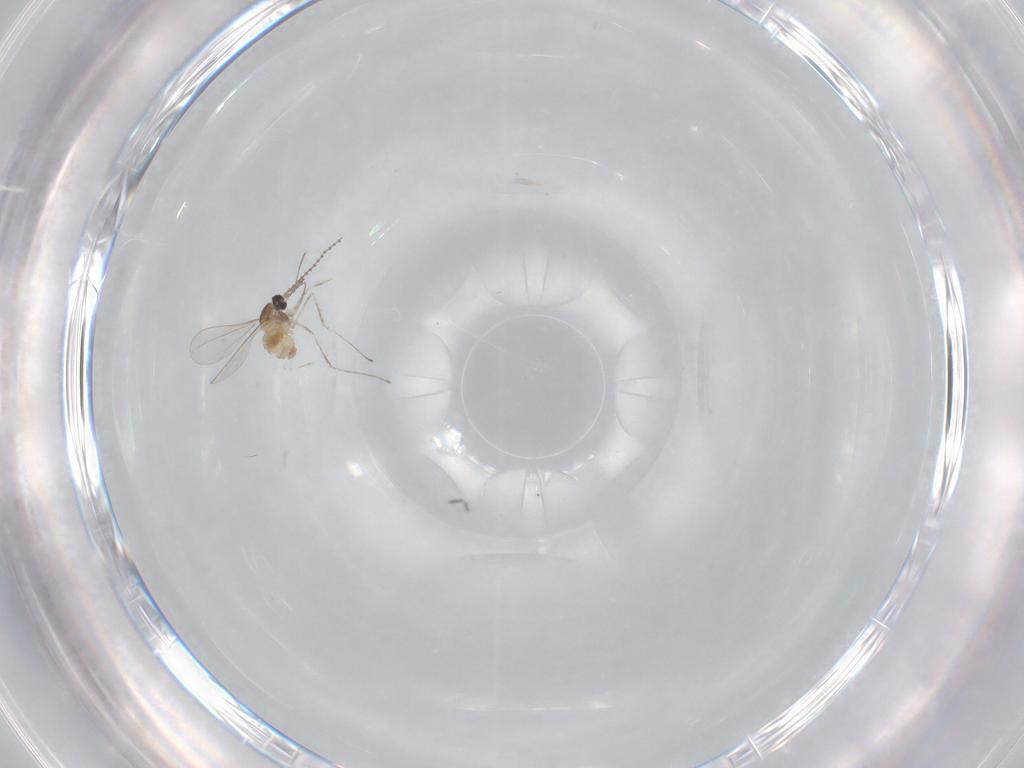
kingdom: Animalia
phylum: Arthropoda
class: Insecta
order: Diptera
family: Cecidomyiidae
